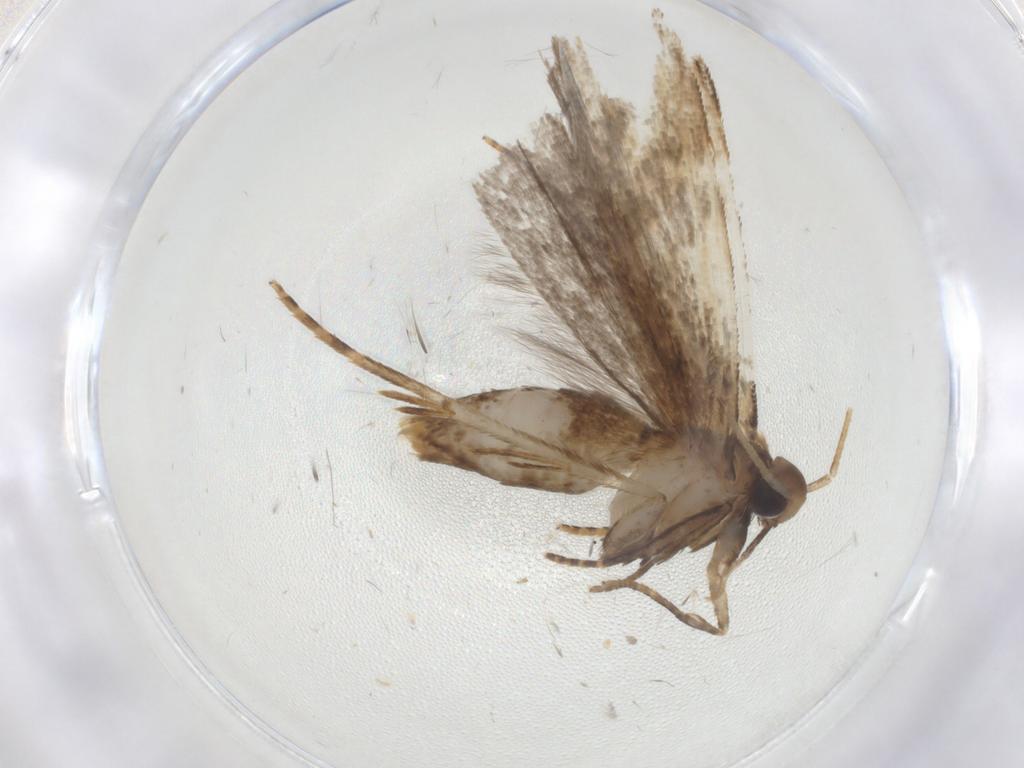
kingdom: Animalia
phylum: Arthropoda
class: Insecta
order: Lepidoptera
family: Gelechiidae
